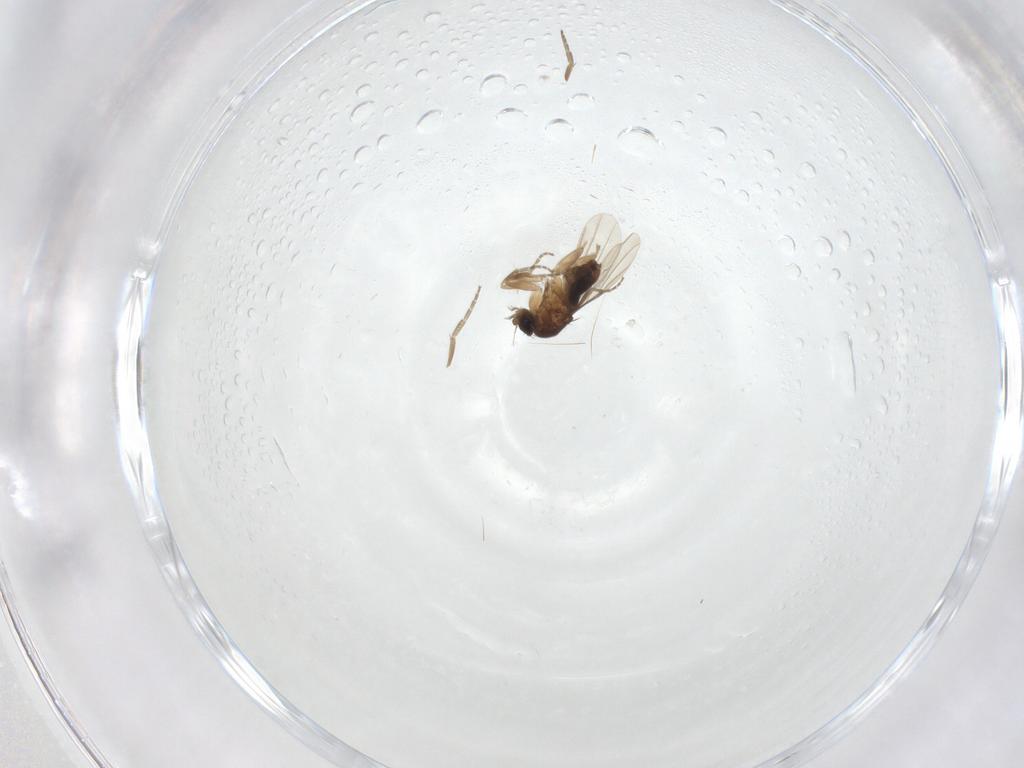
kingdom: Animalia
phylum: Arthropoda
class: Insecta
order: Diptera
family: Phoridae
